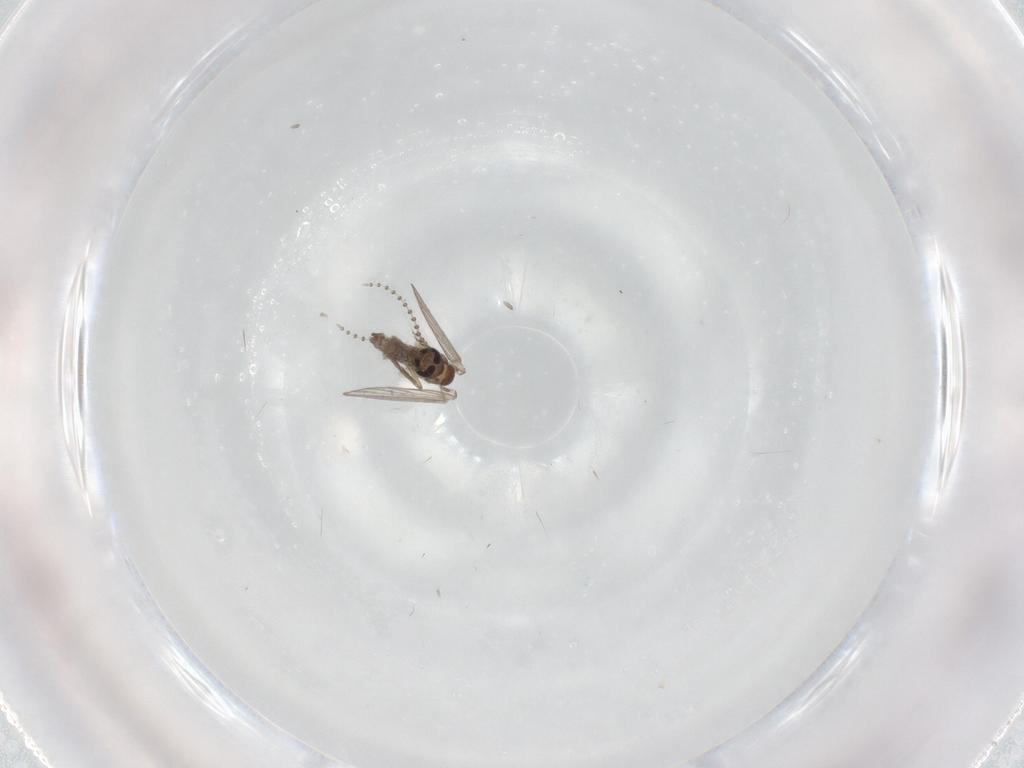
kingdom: Animalia
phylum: Arthropoda
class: Insecta
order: Diptera
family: Psychodidae
